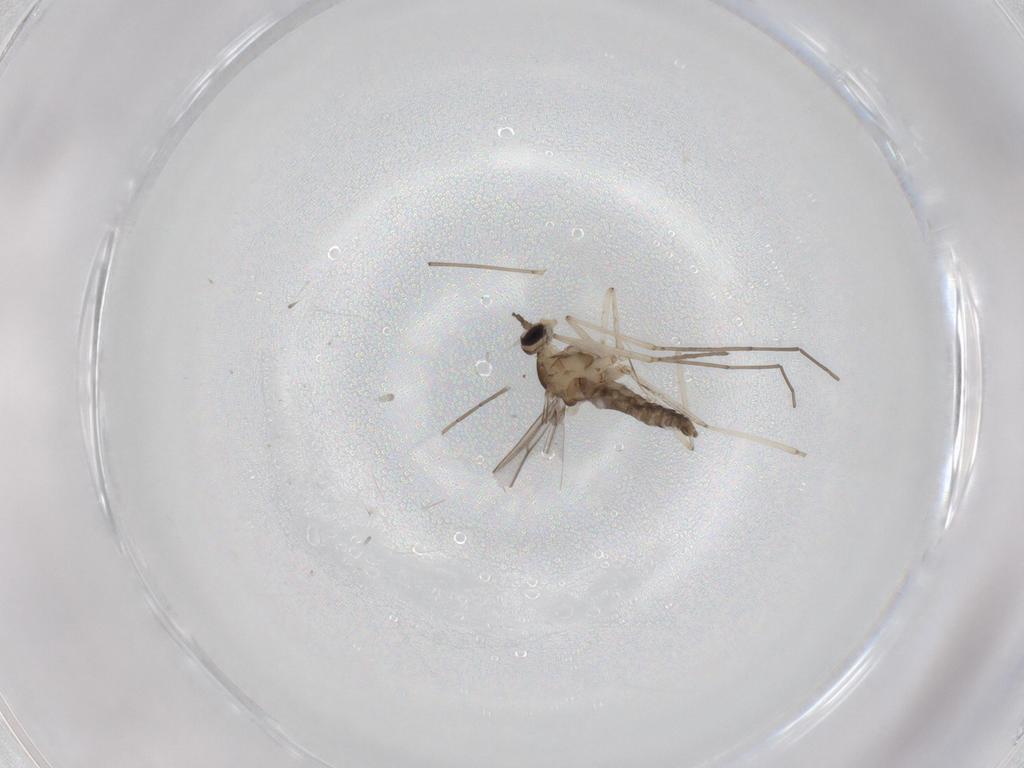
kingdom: Animalia
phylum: Arthropoda
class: Insecta
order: Diptera
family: Cecidomyiidae
